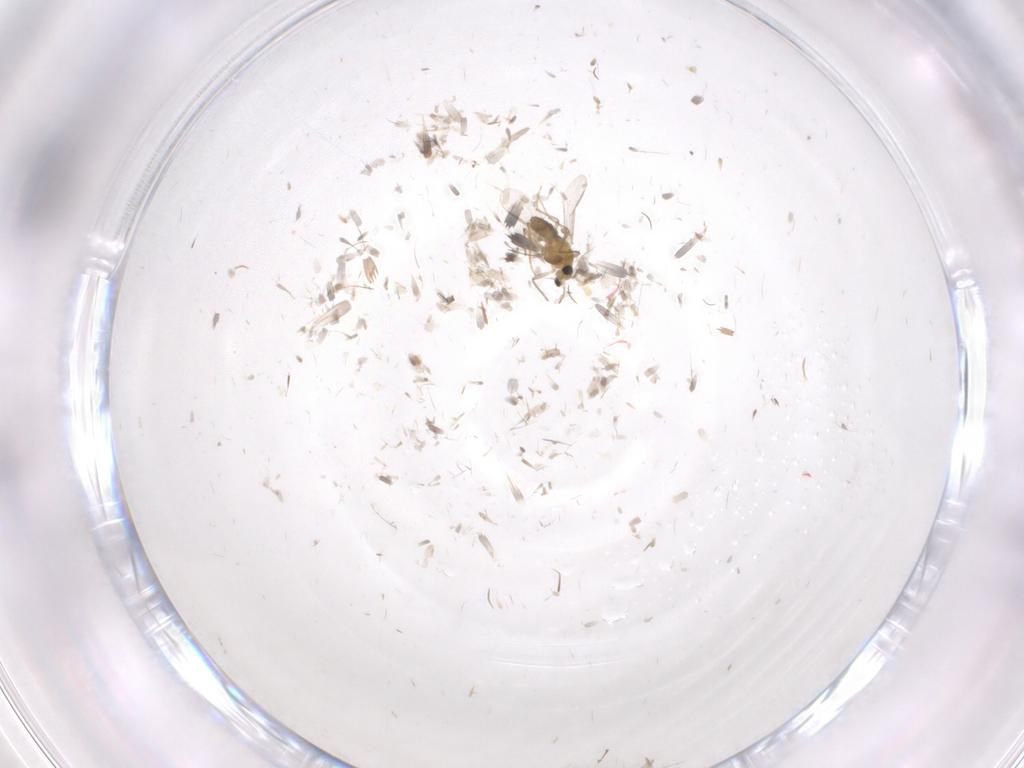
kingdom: Animalia
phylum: Arthropoda
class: Insecta
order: Diptera
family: Chironomidae
